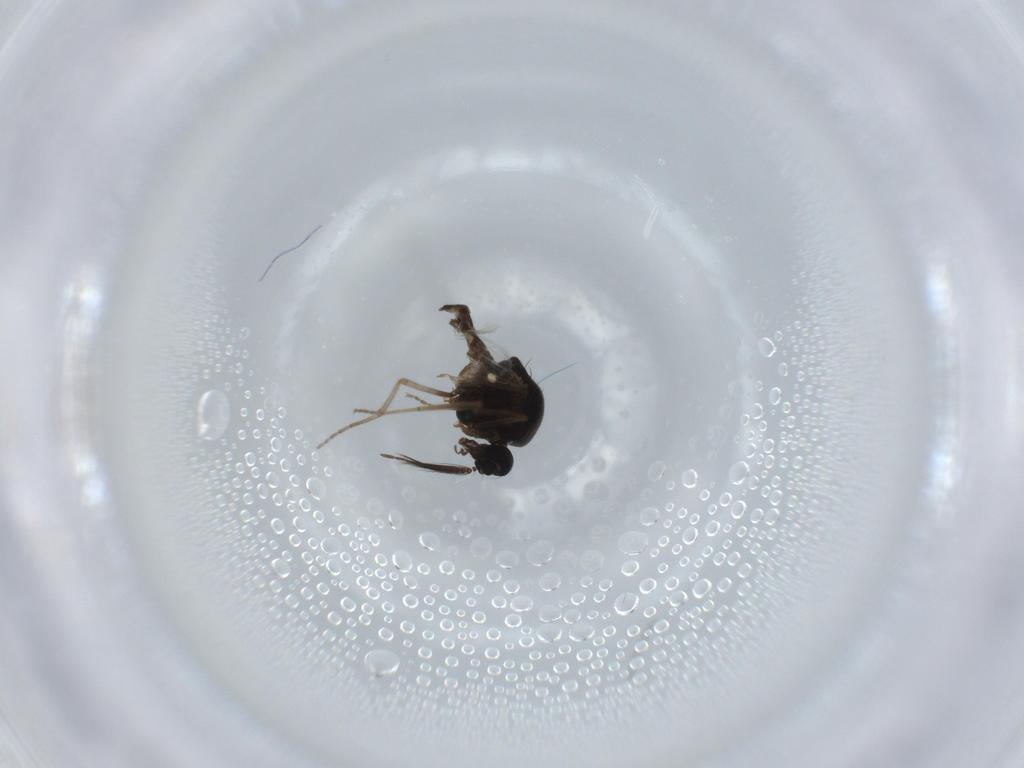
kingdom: Animalia
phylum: Arthropoda
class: Insecta
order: Diptera
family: Ceratopogonidae
